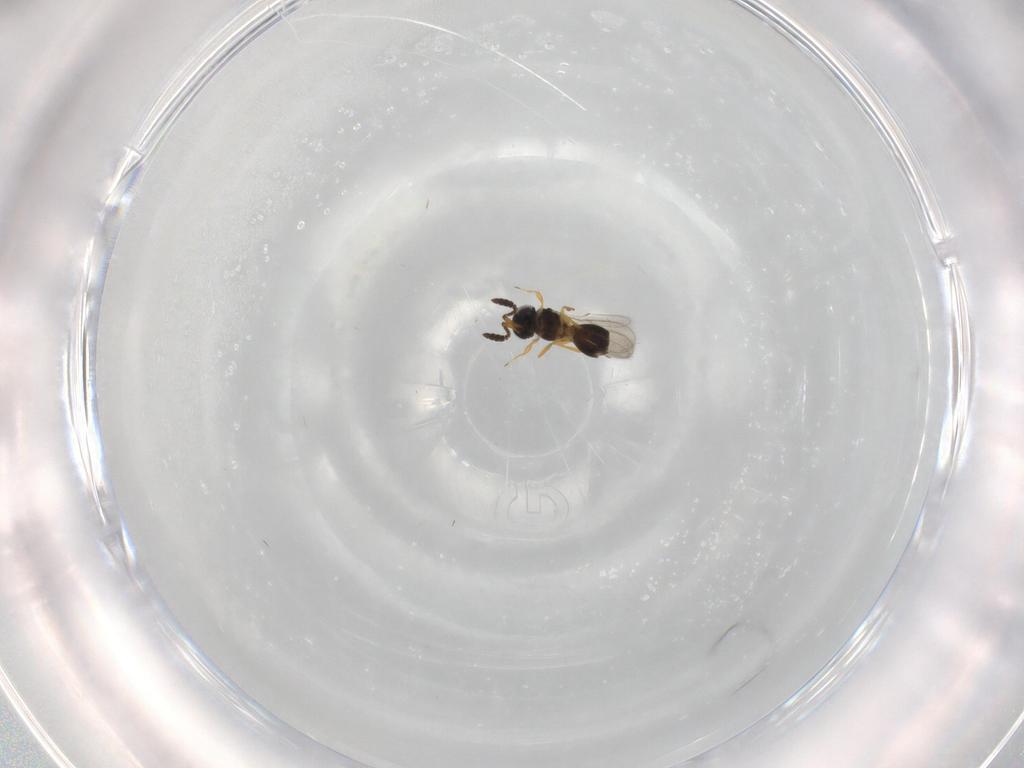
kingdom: Animalia
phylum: Arthropoda
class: Insecta
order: Hymenoptera
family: Scelionidae
